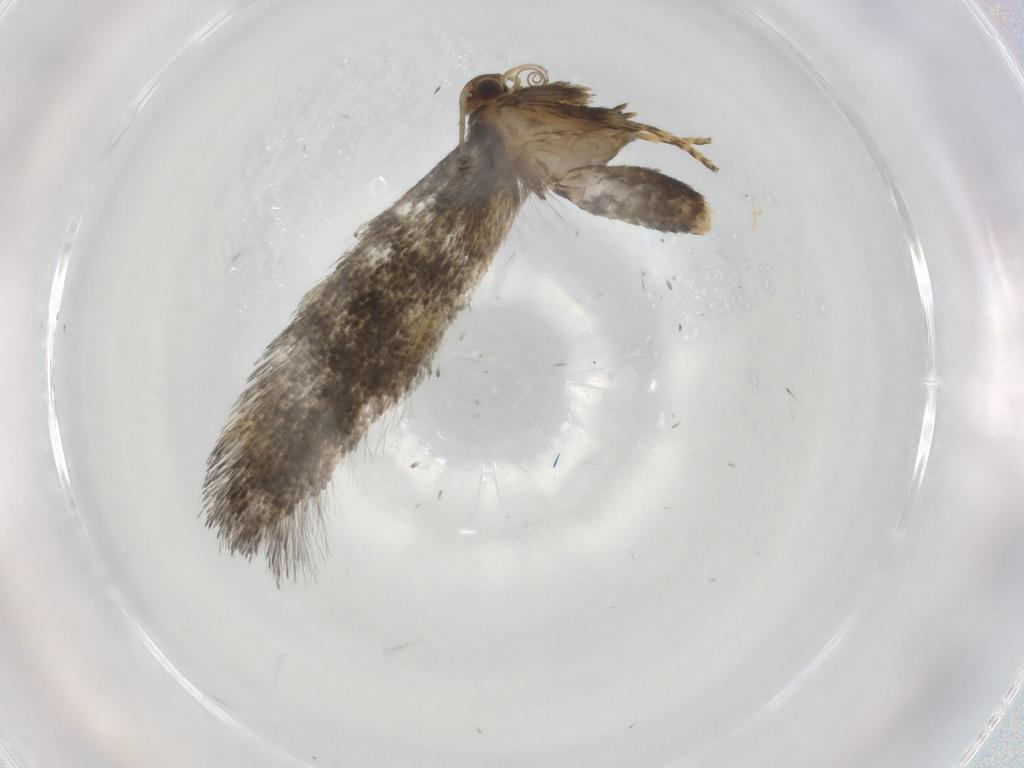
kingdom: Animalia
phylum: Arthropoda
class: Insecta
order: Lepidoptera
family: Gelechiidae
